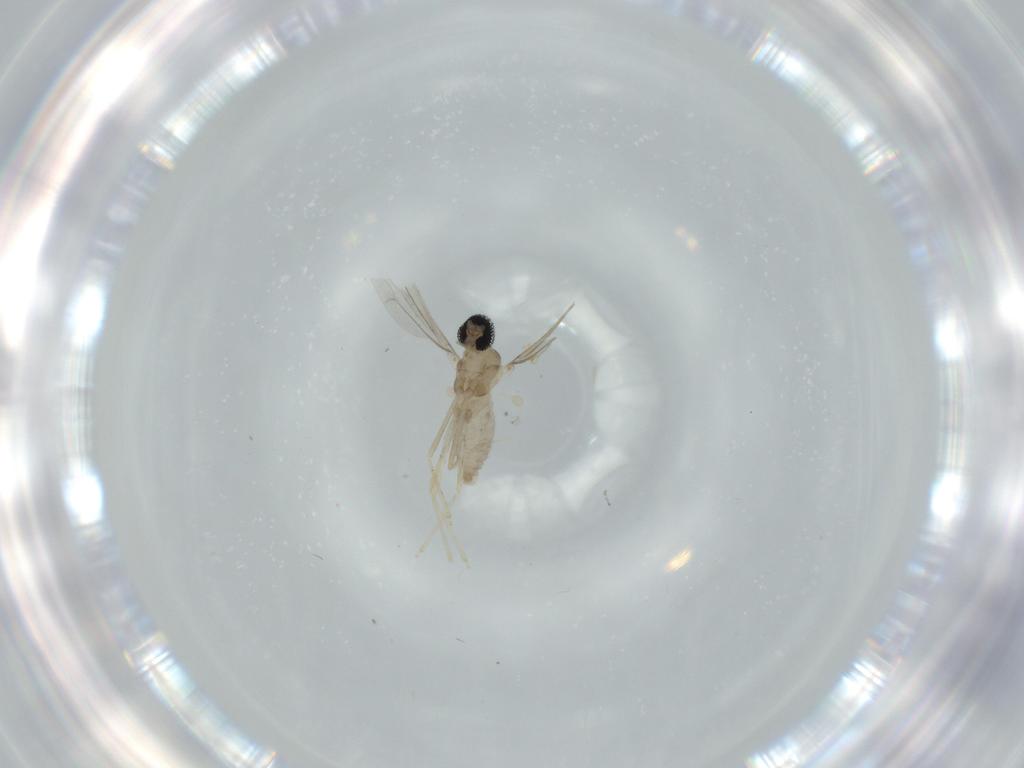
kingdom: Animalia
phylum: Arthropoda
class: Insecta
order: Diptera
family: Cecidomyiidae
